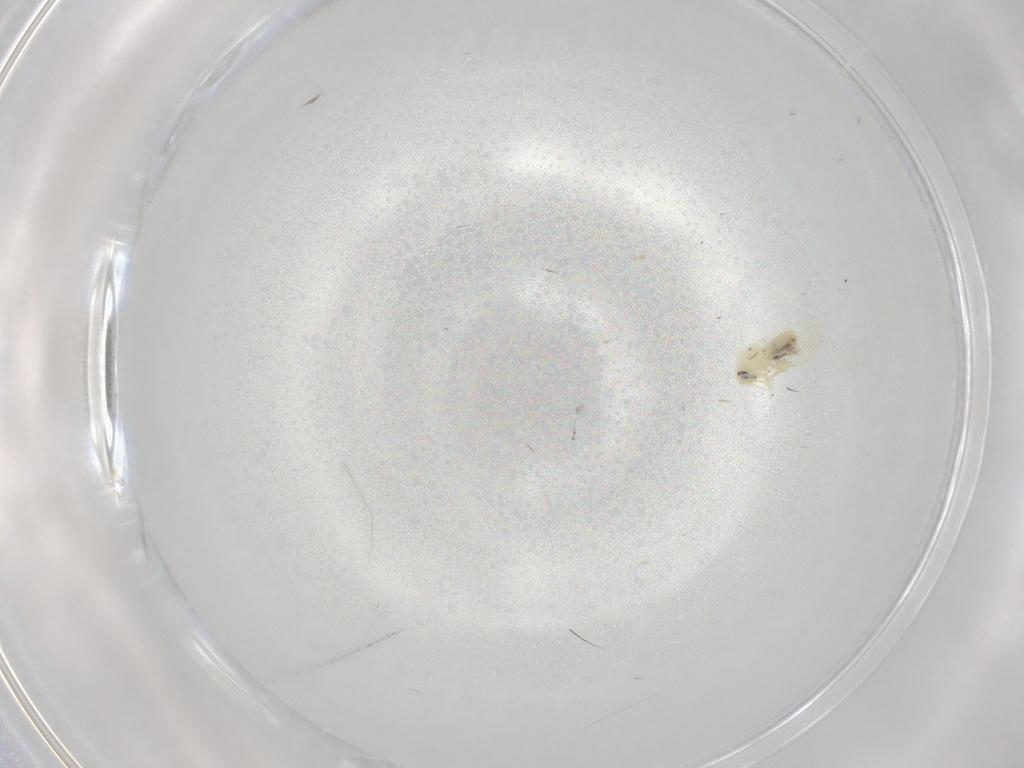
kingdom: Animalia
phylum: Arthropoda
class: Insecta
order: Hemiptera
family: Aleyrodidae
